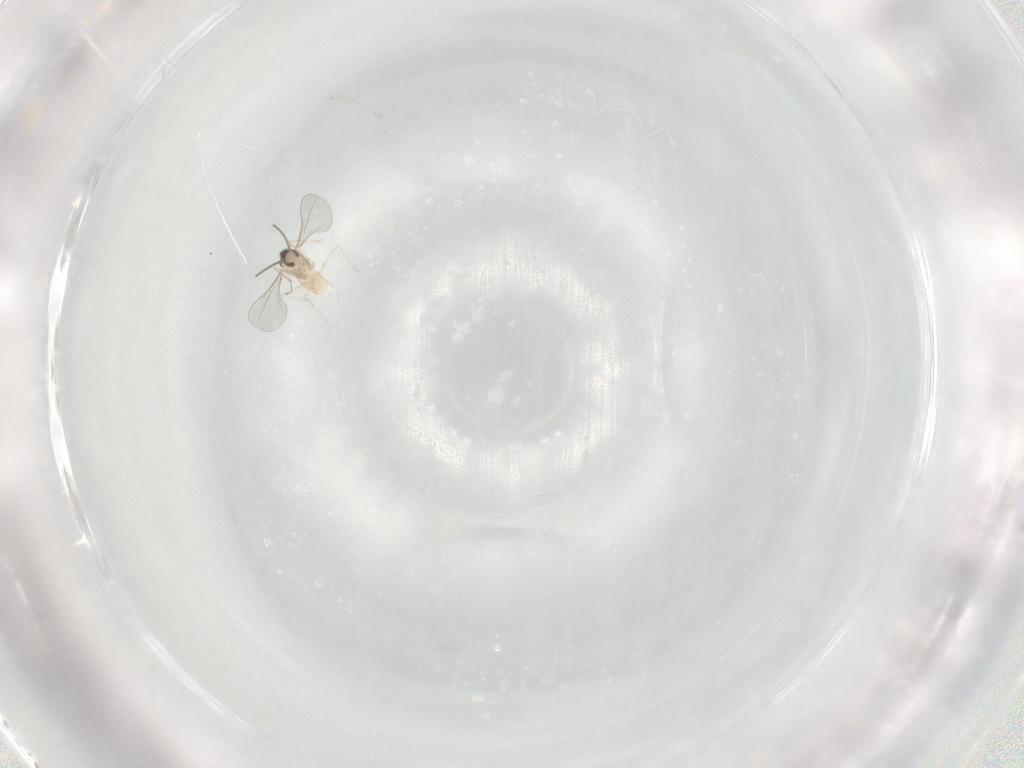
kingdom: Animalia
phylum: Arthropoda
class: Insecta
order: Diptera
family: Cecidomyiidae
